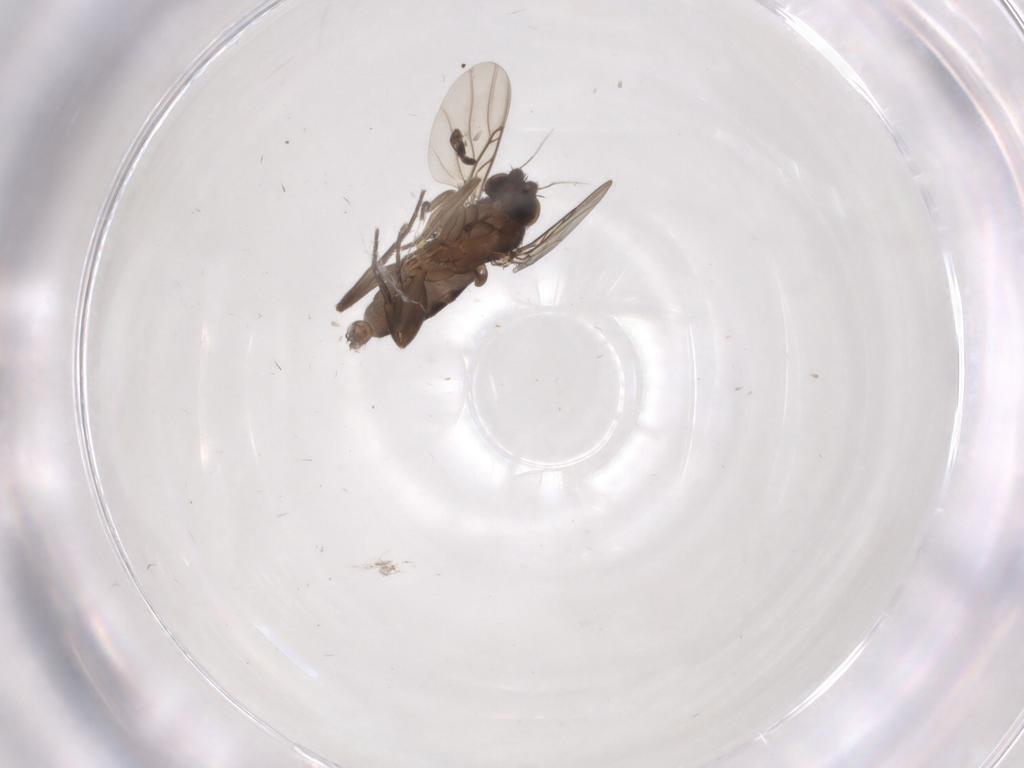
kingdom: Animalia
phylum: Arthropoda
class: Insecta
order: Diptera
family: Phoridae
